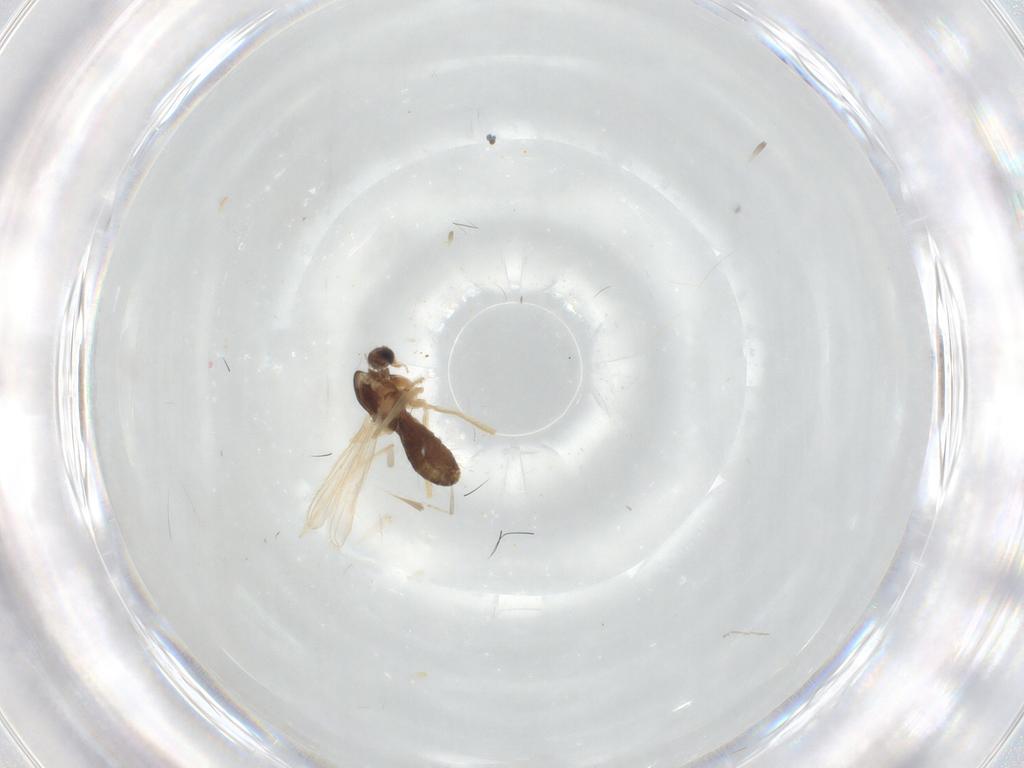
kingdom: Animalia
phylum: Arthropoda
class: Insecta
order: Diptera
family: Chironomidae
